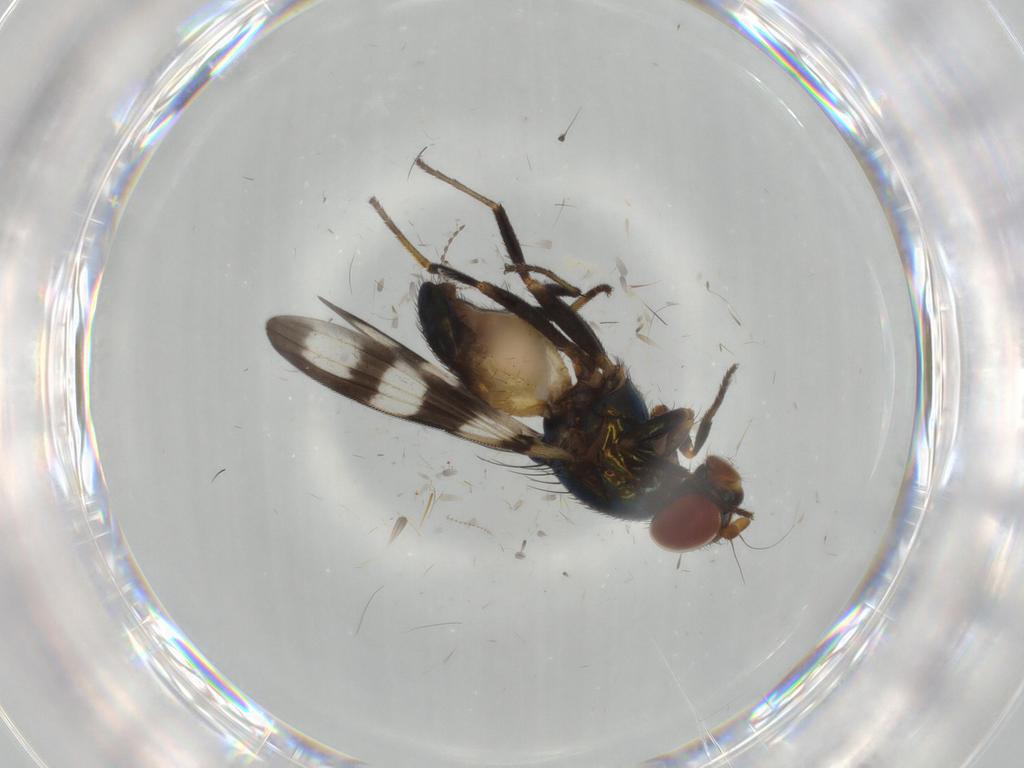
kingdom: Animalia
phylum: Arthropoda
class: Insecta
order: Diptera
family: Ulidiidae
